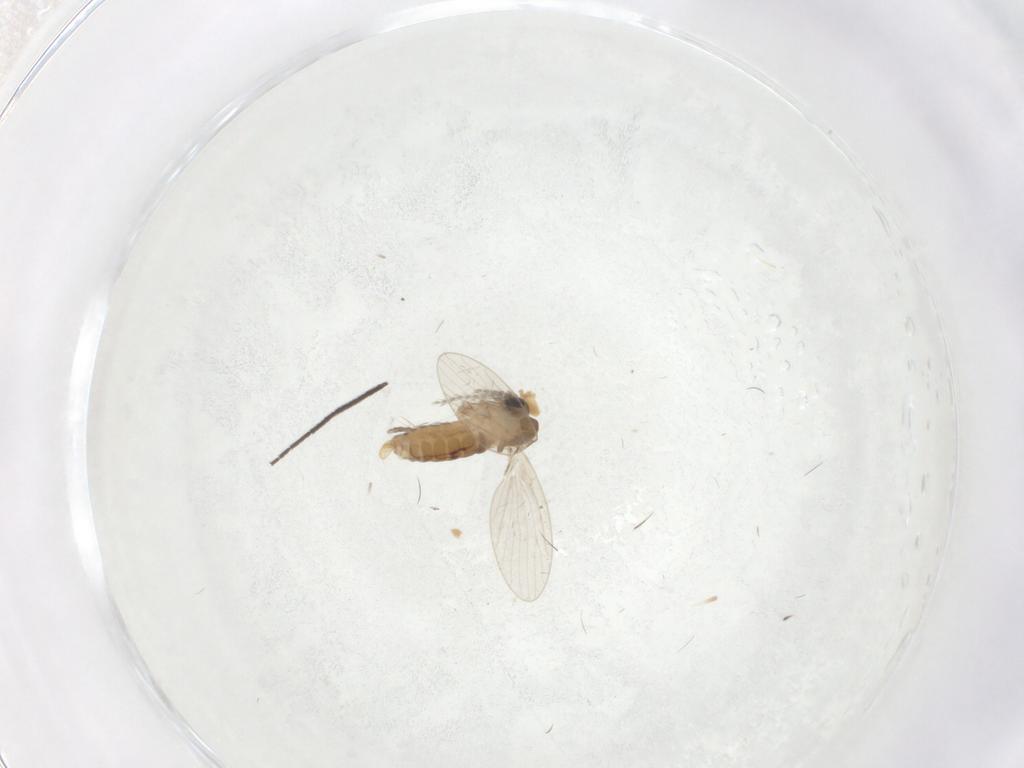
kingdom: Animalia
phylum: Arthropoda
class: Insecta
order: Diptera
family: Psychodidae
